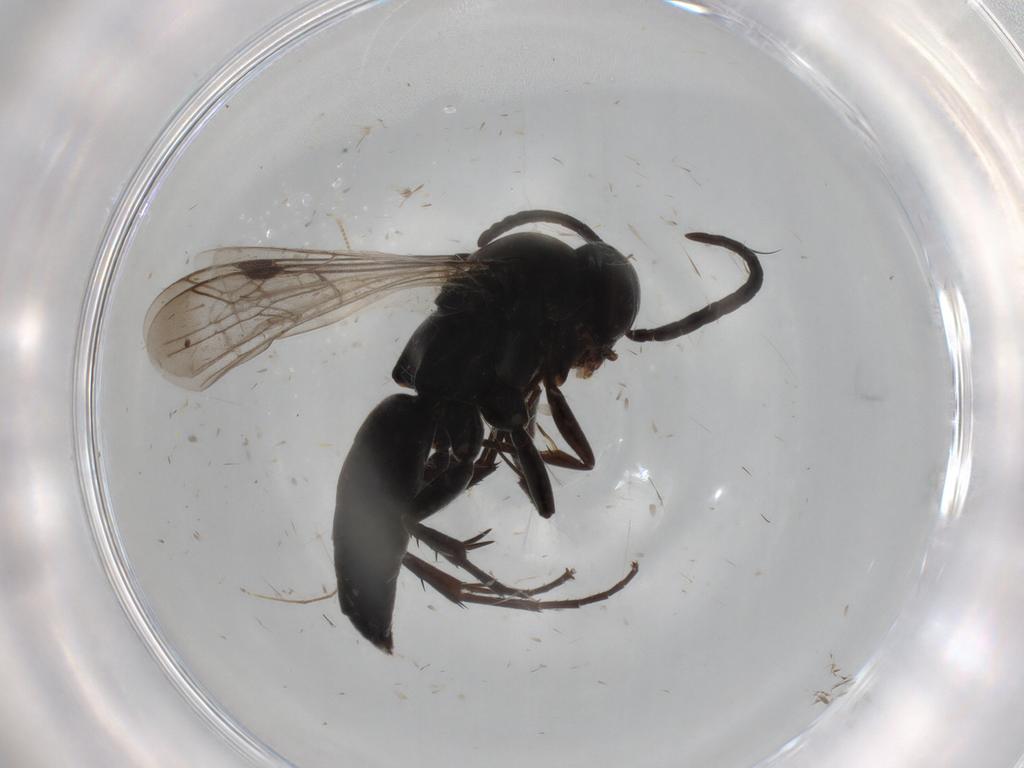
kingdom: Animalia
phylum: Arthropoda
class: Insecta
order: Hymenoptera
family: Pompilidae
